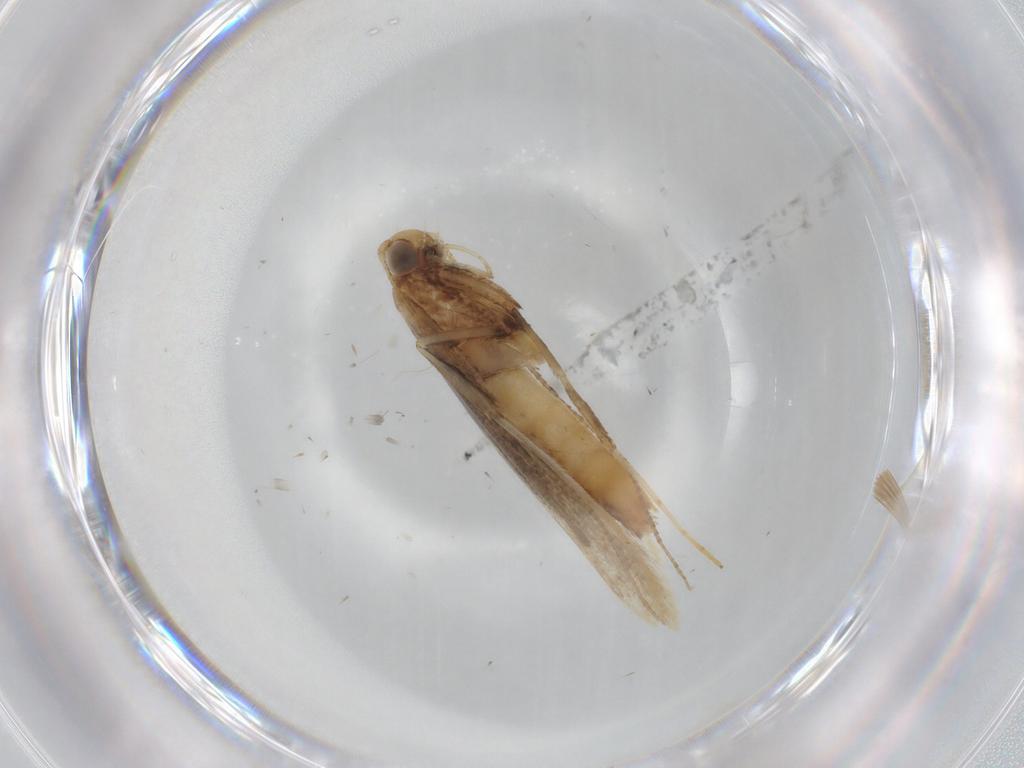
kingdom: Animalia
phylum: Arthropoda
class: Insecta
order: Lepidoptera
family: Gracillariidae
